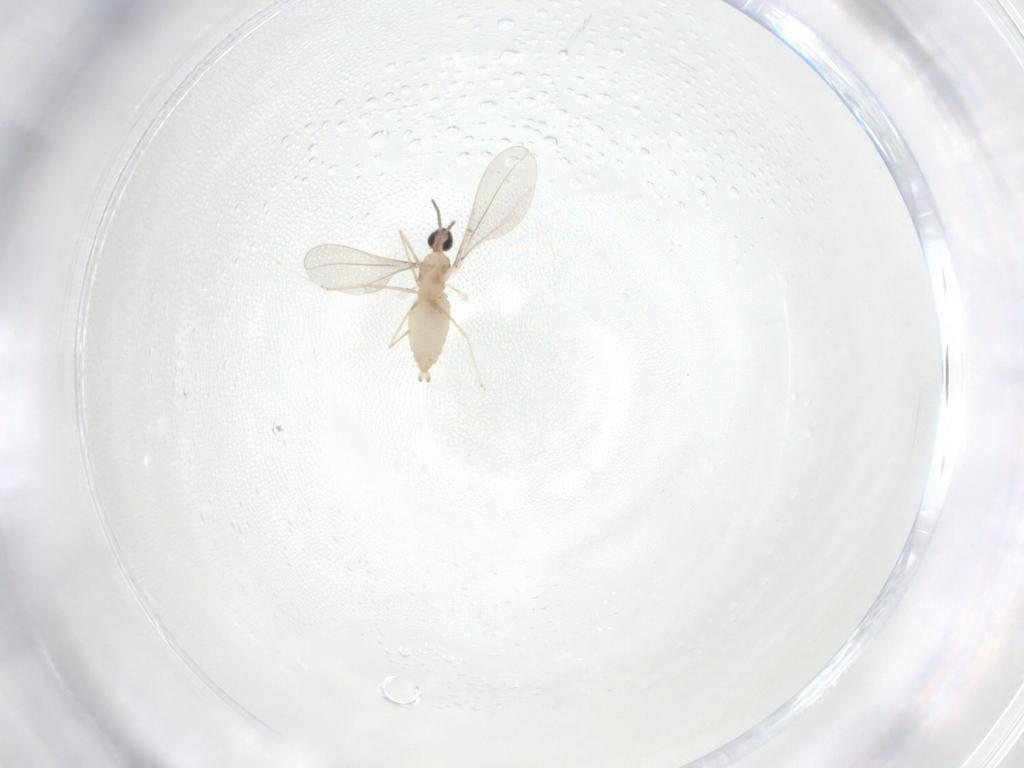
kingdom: Animalia
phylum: Arthropoda
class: Insecta
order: Diptera
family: Cecidomyiidae
